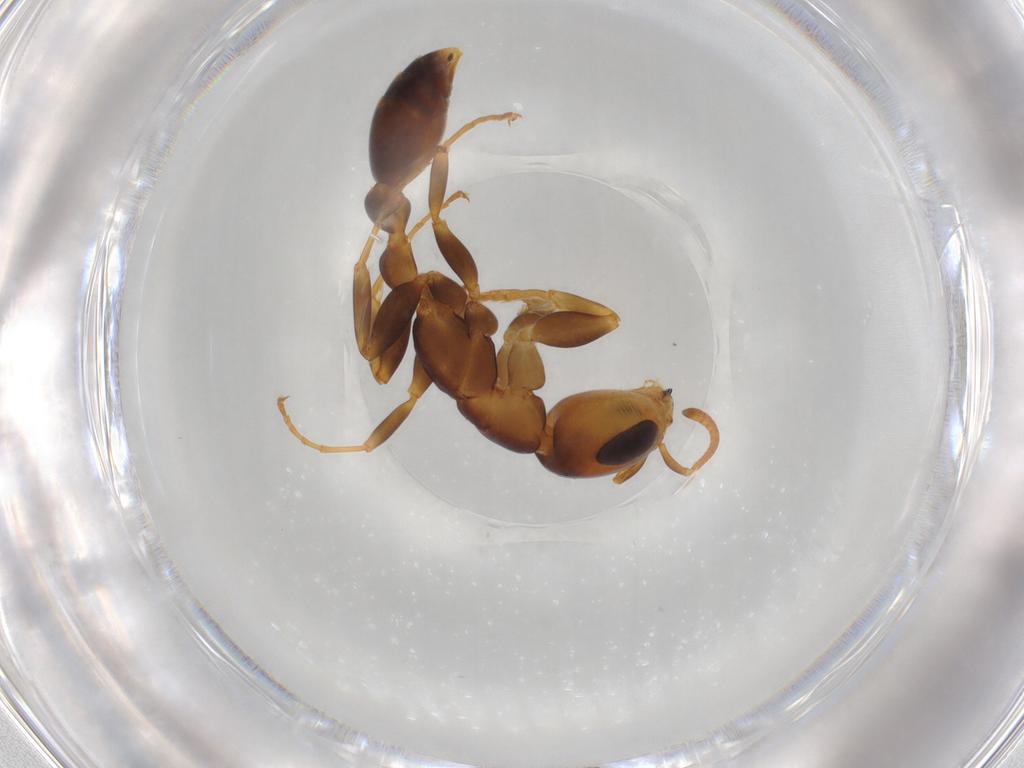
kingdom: Animalia
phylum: Arthropoda
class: Insecta
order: Hymenoptera
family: Formicidae
